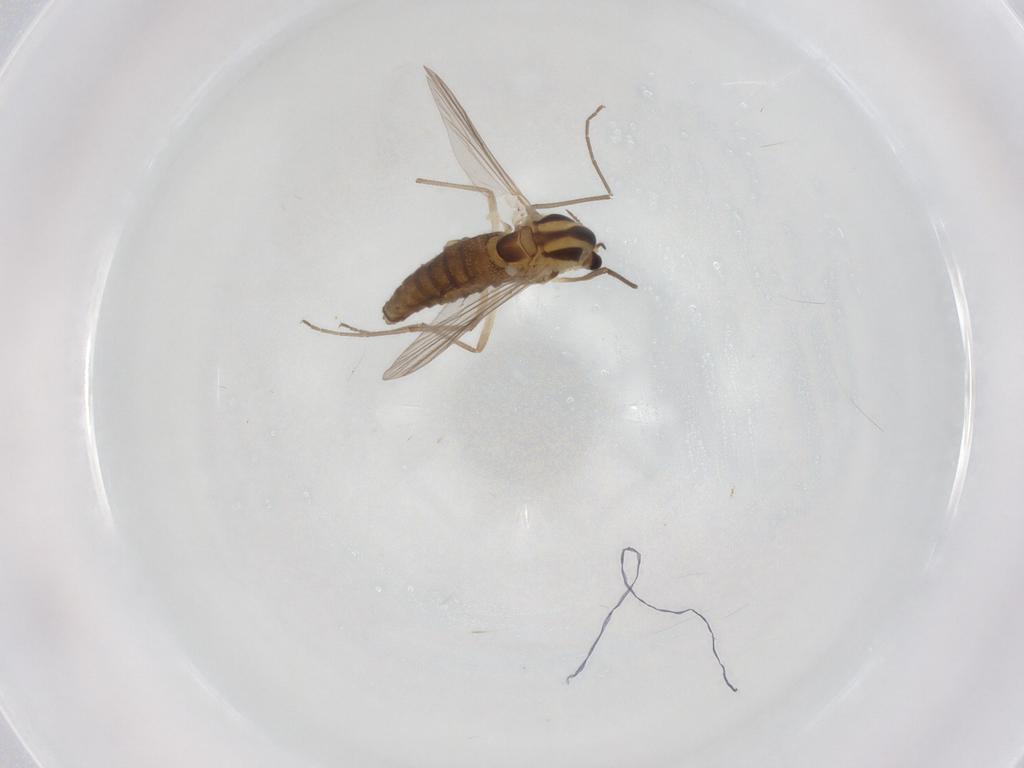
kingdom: Animalia
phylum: Arthropoda
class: Insecta
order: Diptera
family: Chironomidae
